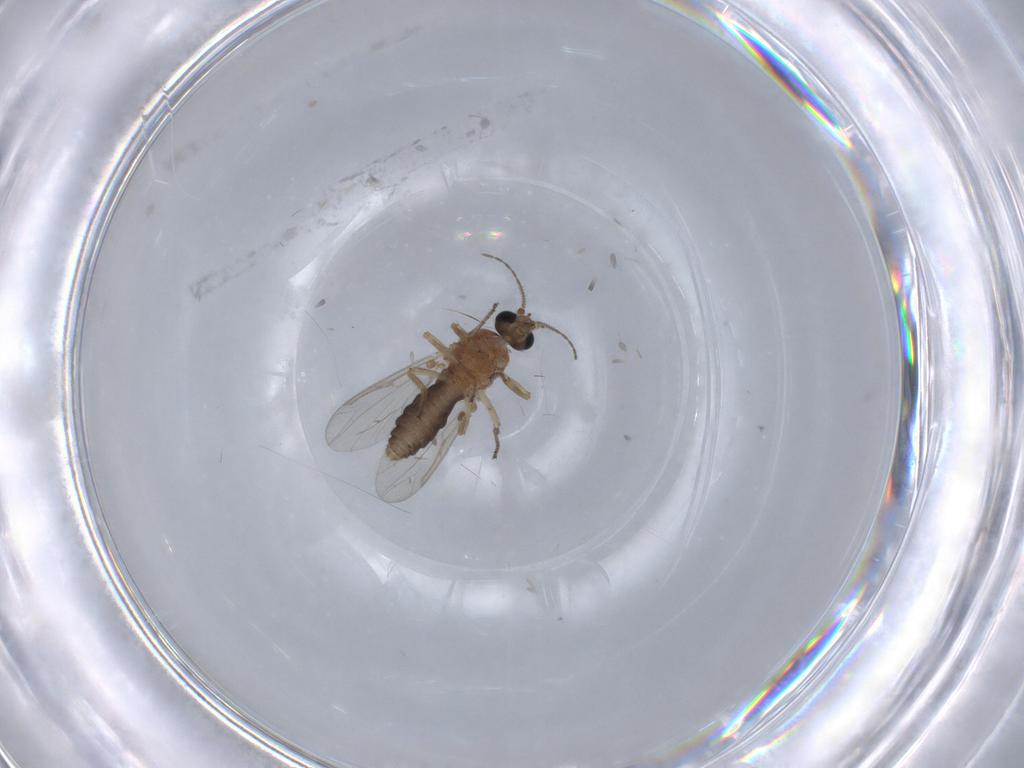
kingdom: Animalia
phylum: Arthropoda
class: Insecta
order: Diptera
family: Ceratopogonidae
